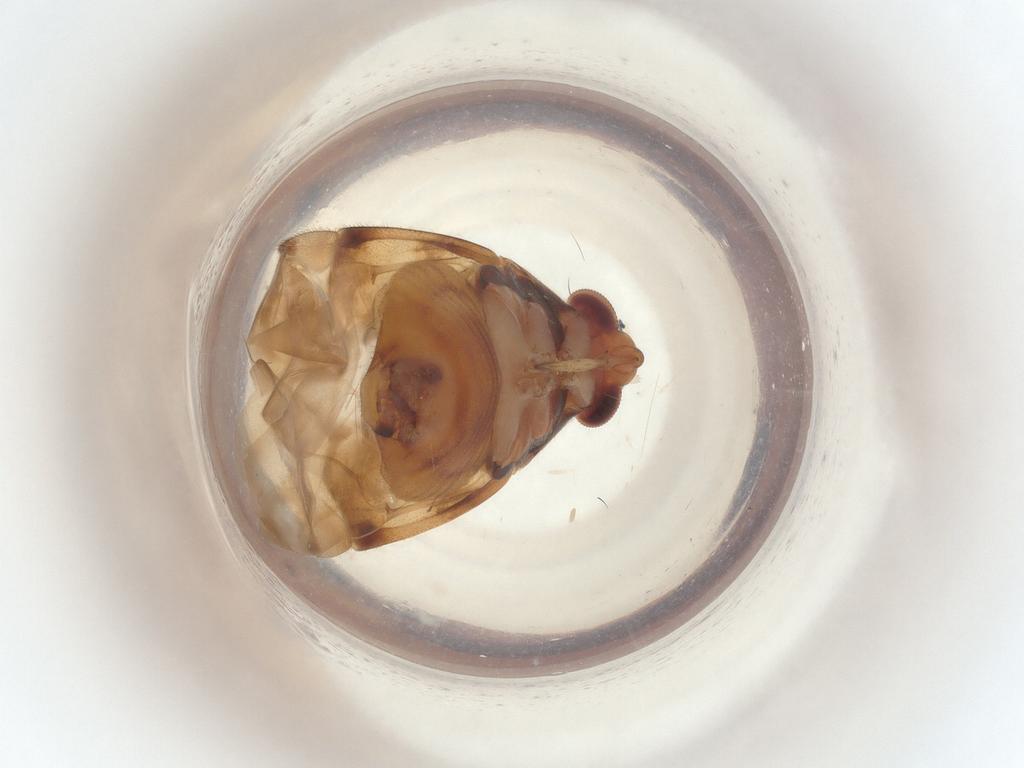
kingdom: Animalia
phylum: Arthropoda
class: Insecta
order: Hemiptera
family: Miridae
